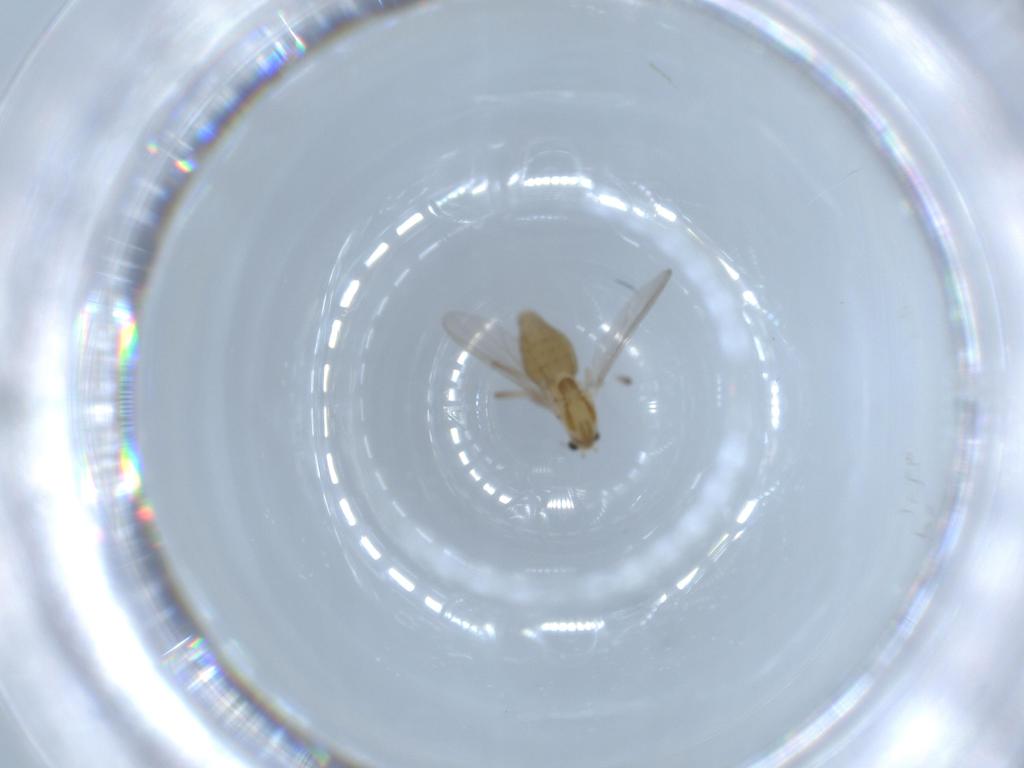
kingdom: Animalia
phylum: Arthropoda
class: Insecta
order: Diptera
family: Chironomidae
